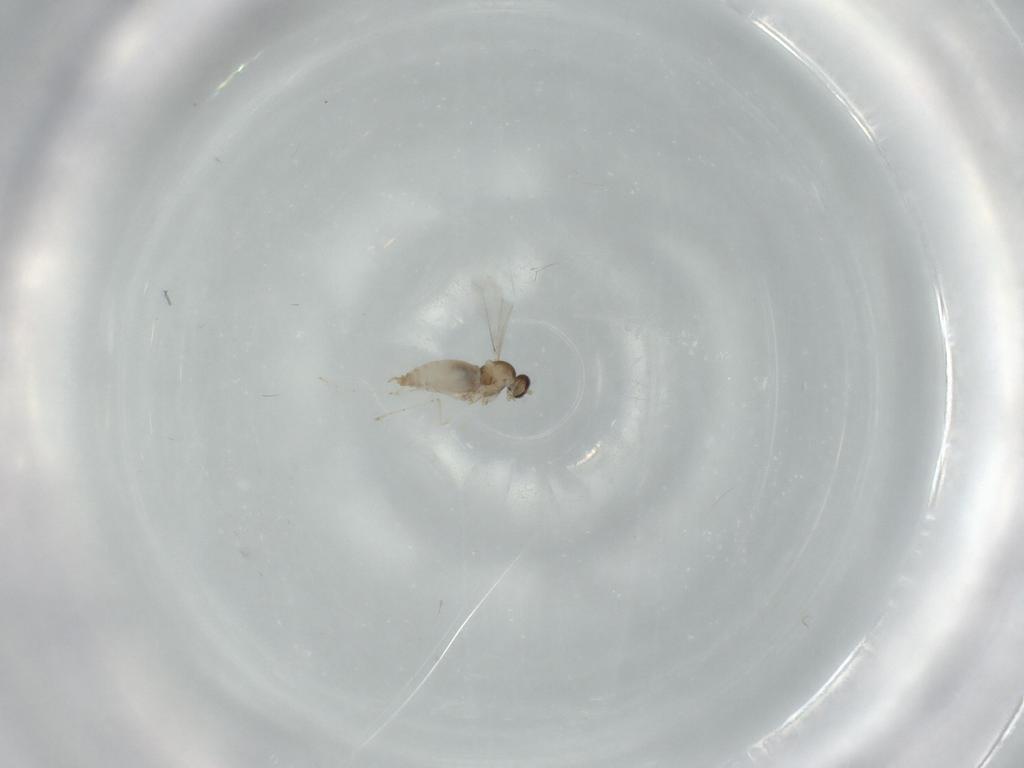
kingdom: Animalia
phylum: Arthropoda
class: Insecta
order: Diptera
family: Cecidomyiidae
